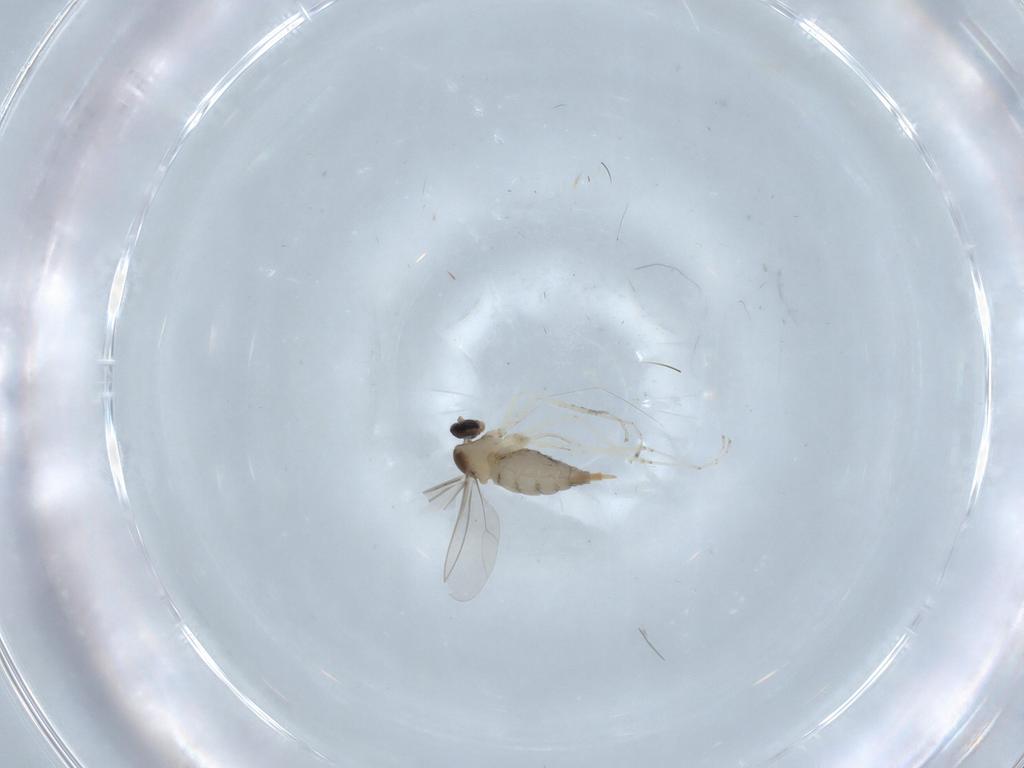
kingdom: Animalia
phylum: Arthropoda
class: Insecta
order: Diptera
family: Cecidomyiidae
